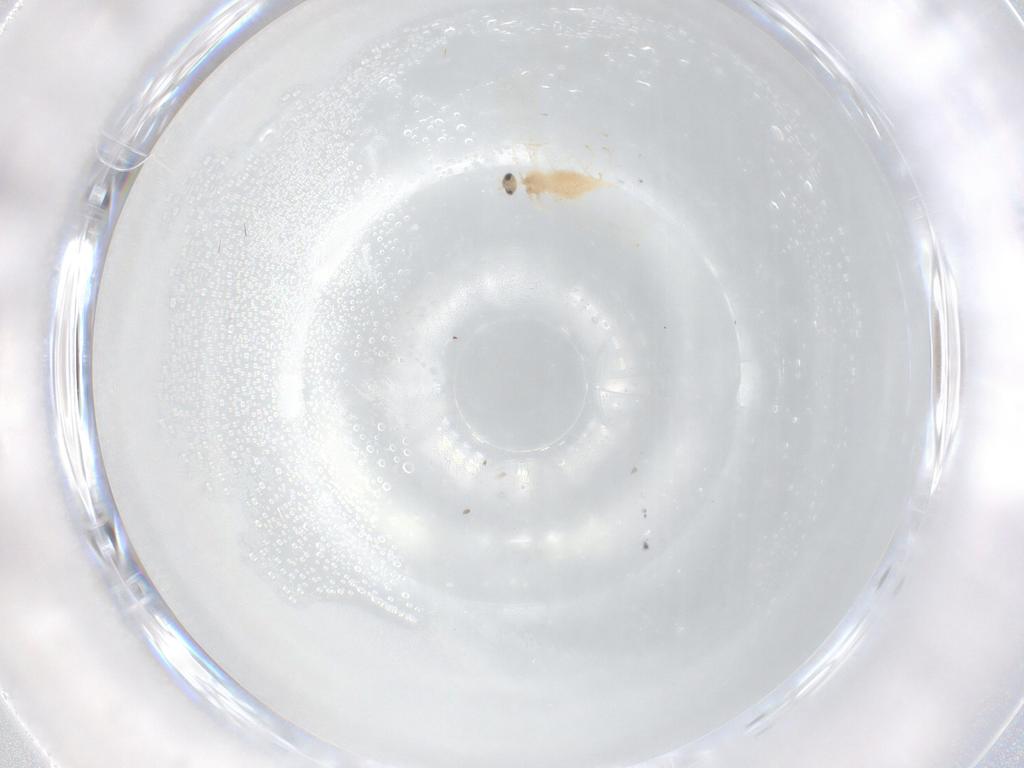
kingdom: Animalia
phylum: Arthropoda
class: Insecta
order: Diptera
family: Cecidomyiidae
